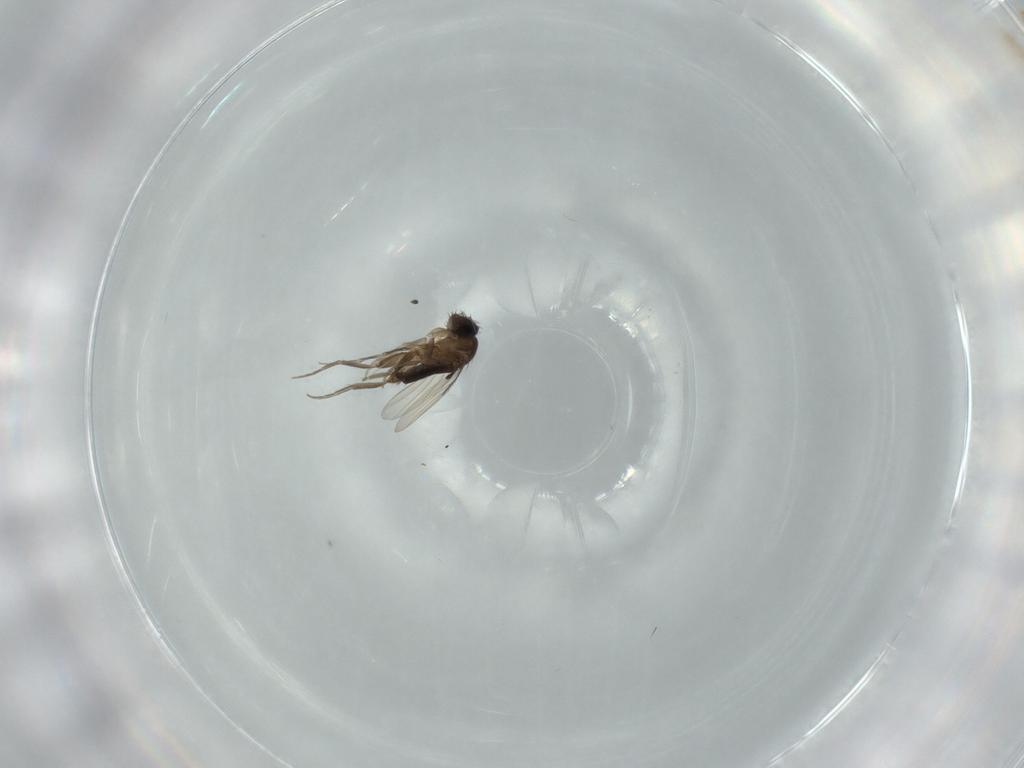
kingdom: Animalia
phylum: Arthropoda
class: Insecta
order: Diptera
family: Phoridae
